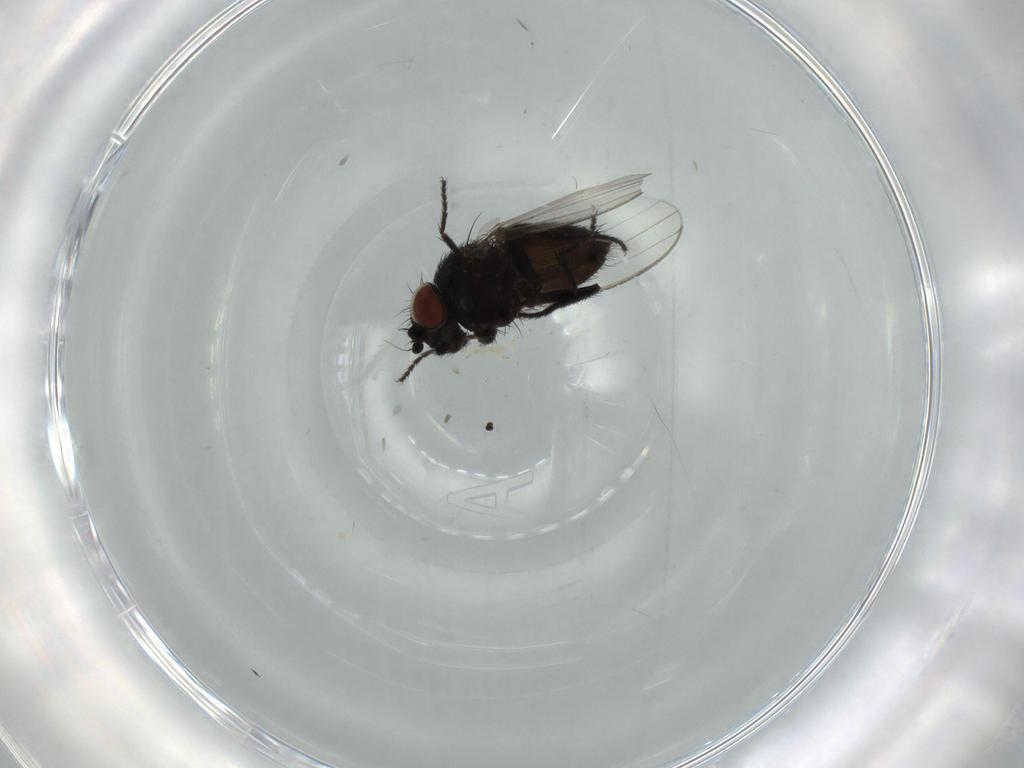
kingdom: Animalia
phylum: Arthropoda
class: Insecta
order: Diptera
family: Milichiidae
